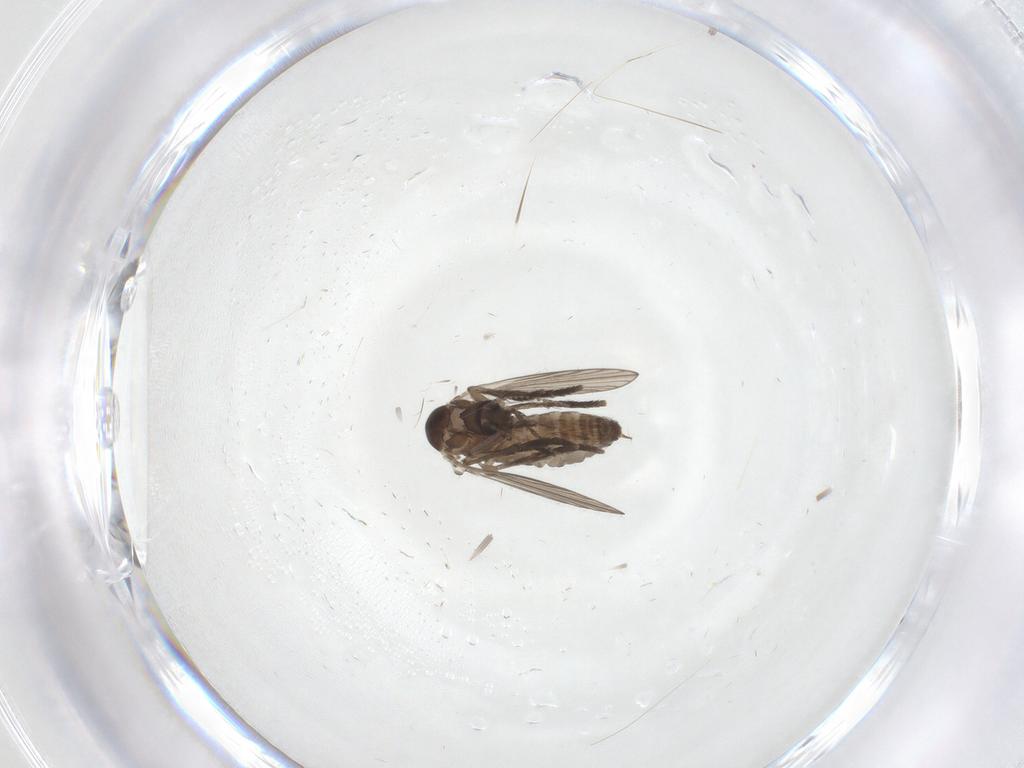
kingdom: Animalia
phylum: Arthropoda
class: Insecta
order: Diptera
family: Psychodidae
